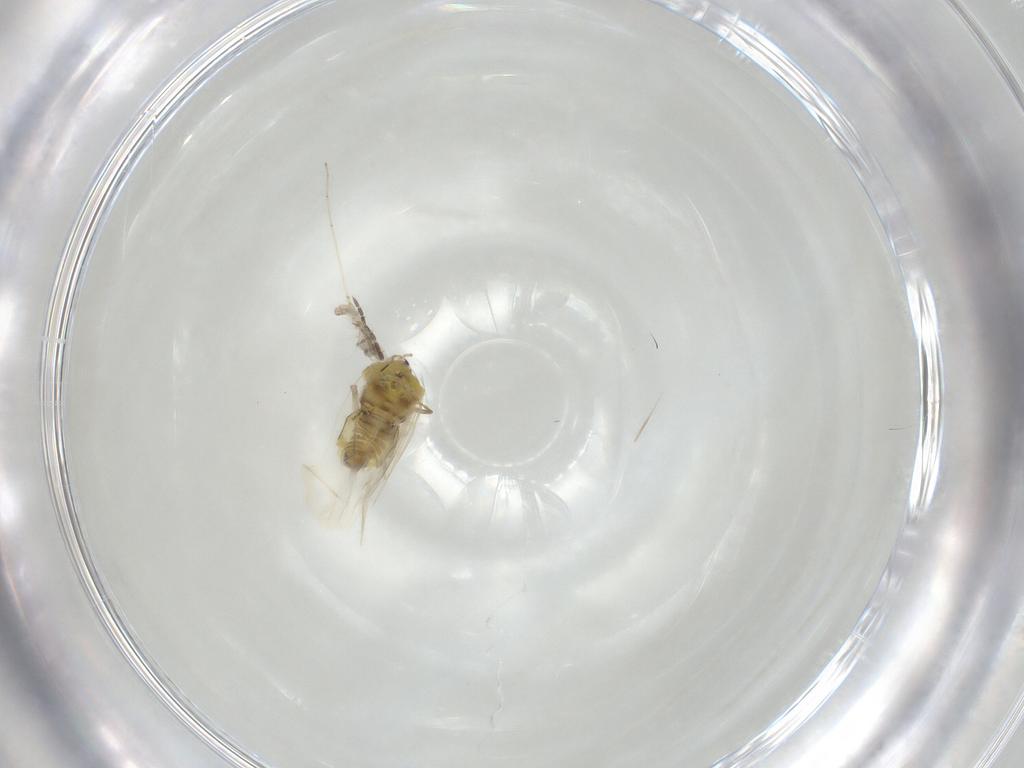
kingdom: Animalia
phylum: Arthropoda
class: Insecta
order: Hemiptera
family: Aleyrodidae
